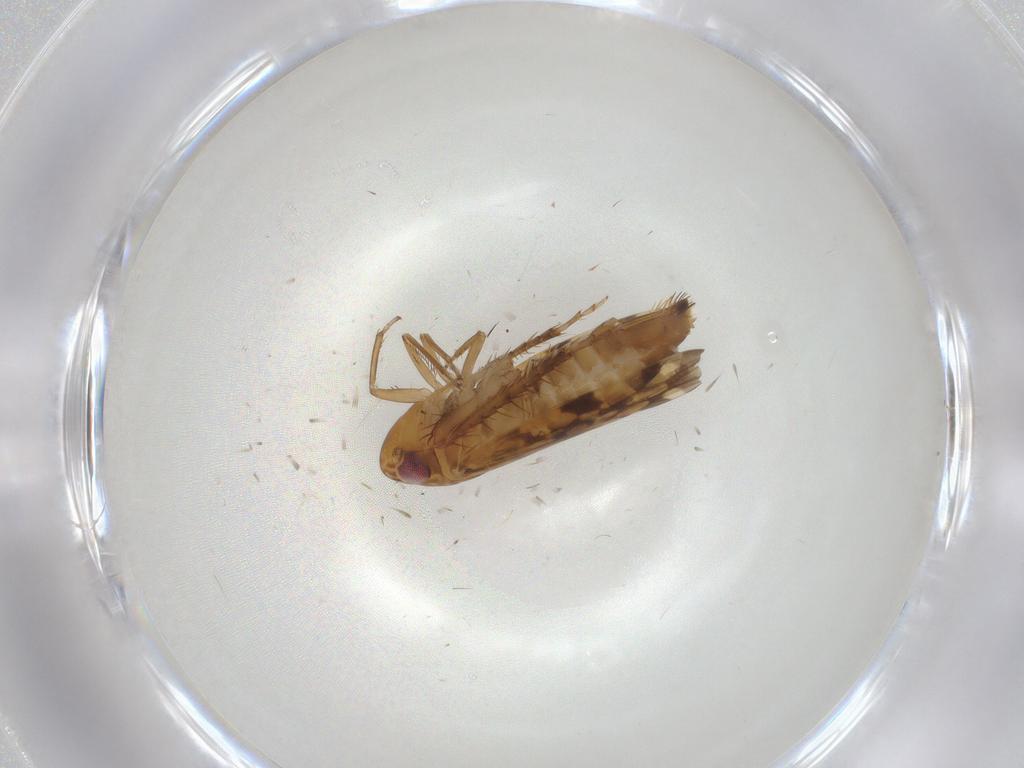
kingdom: Animalia
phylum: Arthropoda
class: Insecta
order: Hemiptera
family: Cicadellidae
